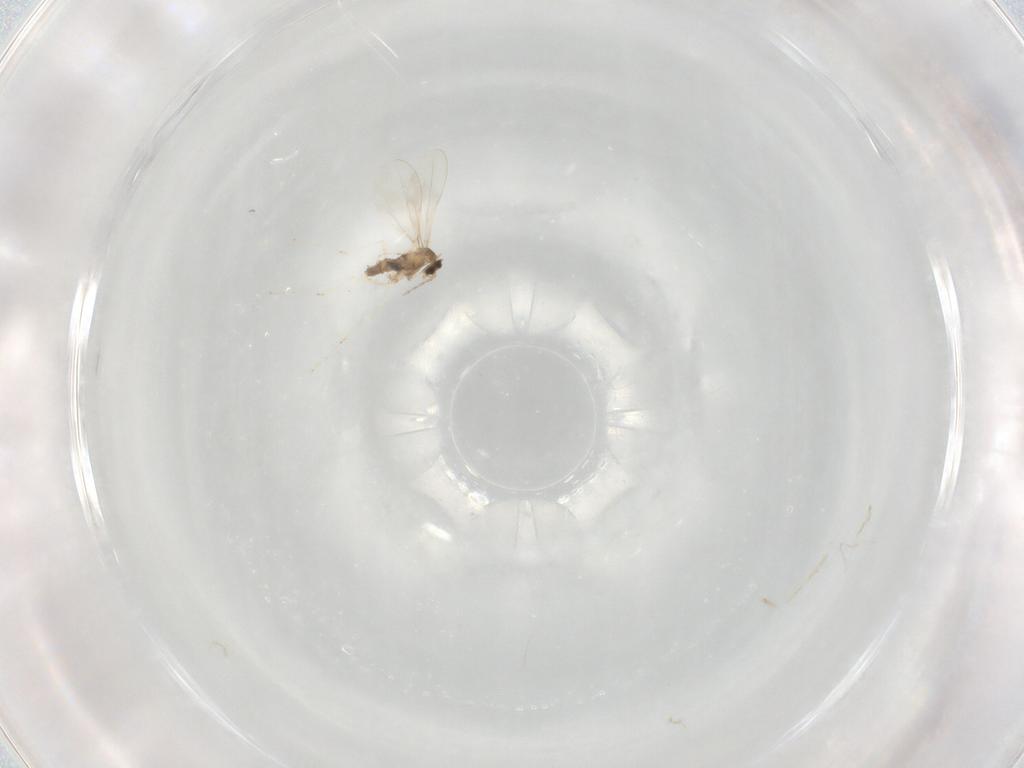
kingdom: Animalia
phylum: Arthropoda
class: Insecta
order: Diptera
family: Cecidomyiidae
